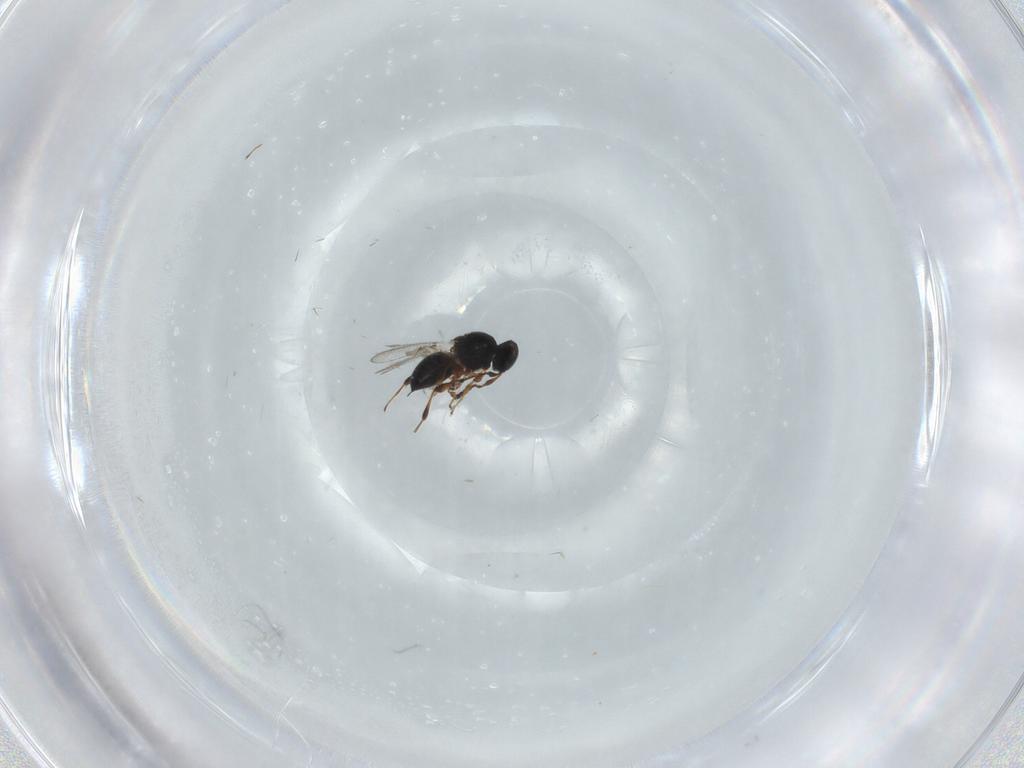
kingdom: Animalia
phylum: Arthropoda
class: Insecta
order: Hymenoptera
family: Platygastridae
